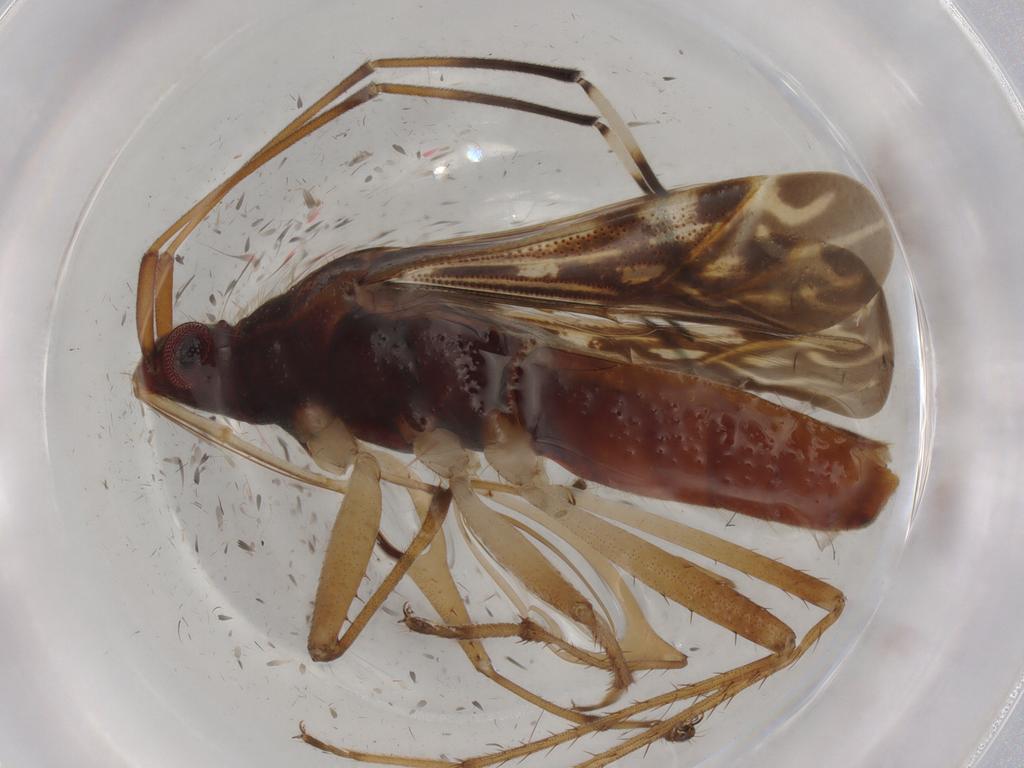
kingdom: Animalia
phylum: Arthropoda
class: Insecta
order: Hemiptera
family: Rhyparochromidae
